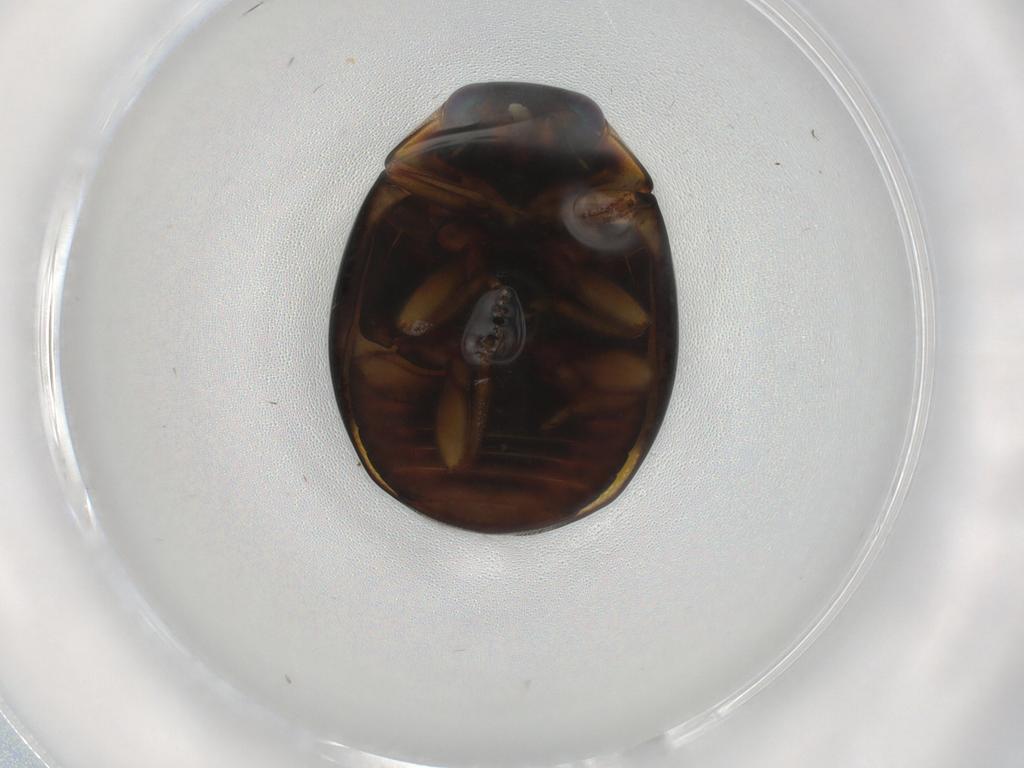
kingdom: Animalia
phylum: Arthropoda
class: Insecta
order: Coleoptera
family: Coccinellidae
